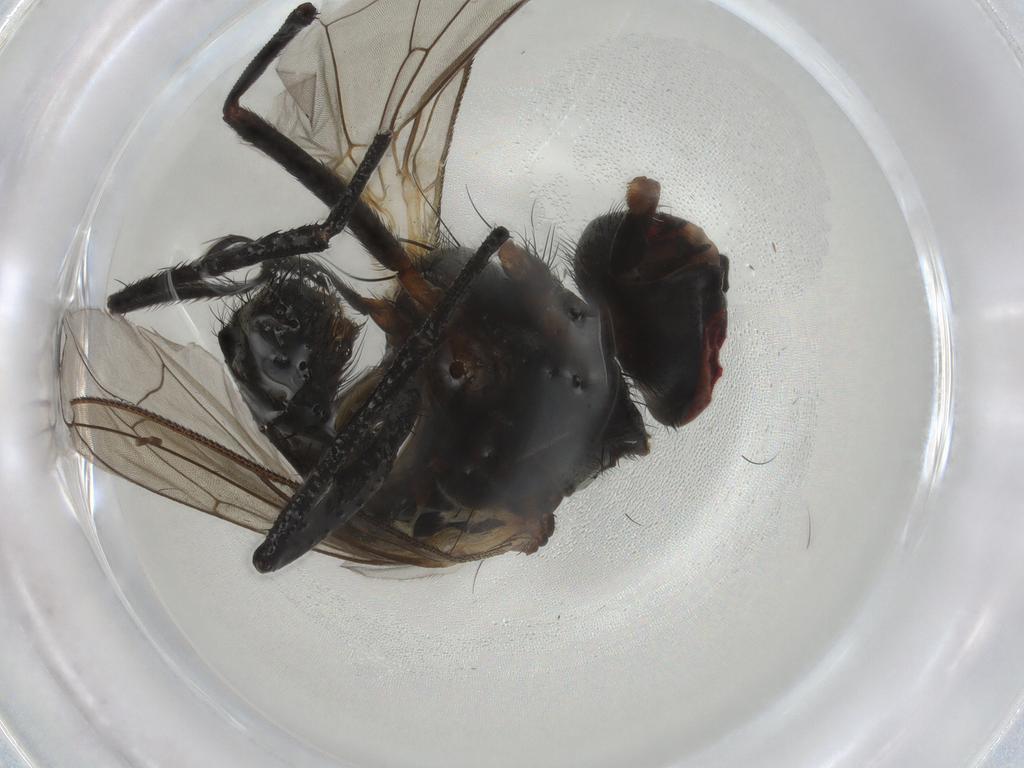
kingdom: Animalia
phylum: Arthropoda
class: Insecta
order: Diptera
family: Anthomyiidae
